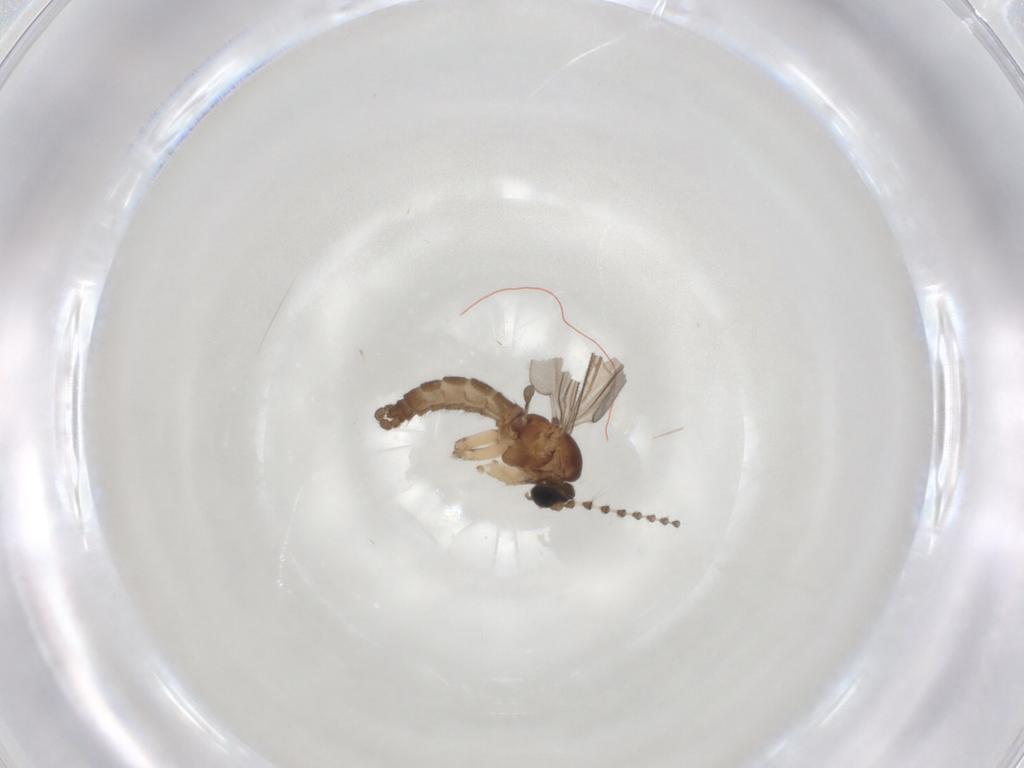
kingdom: Animalia
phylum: Arthropoda
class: Insecta
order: Diptera
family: Sciaridae
